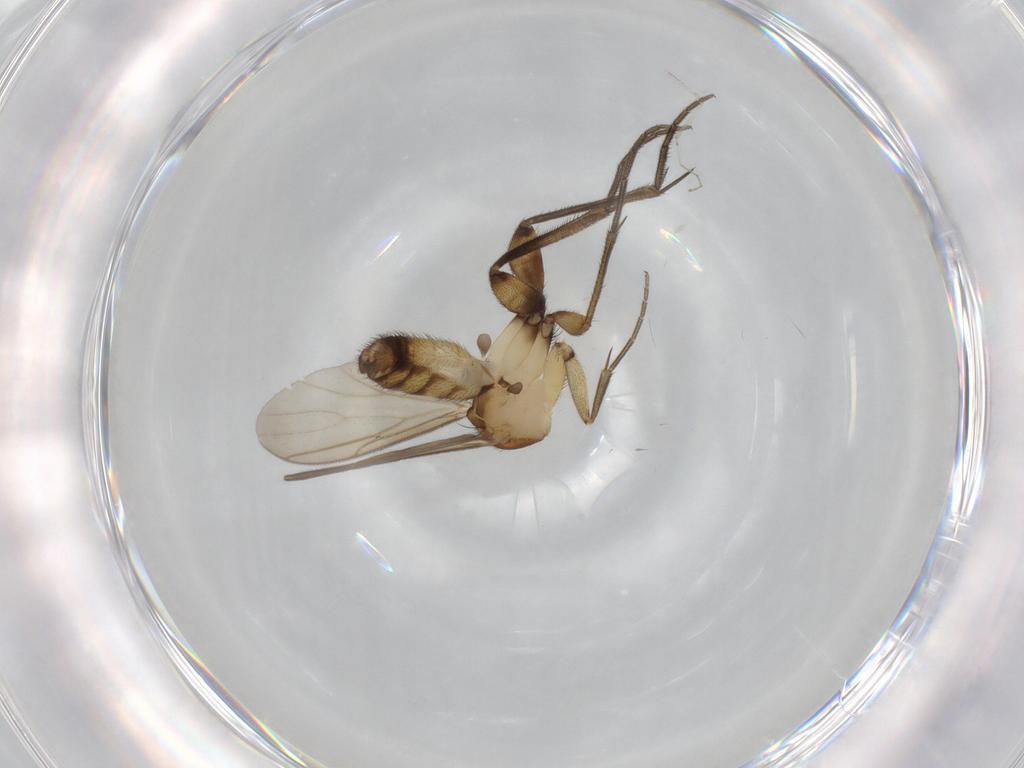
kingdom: Animalia
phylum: Arthropoda
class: Insecta
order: Diptera
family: Mycetophilidae
